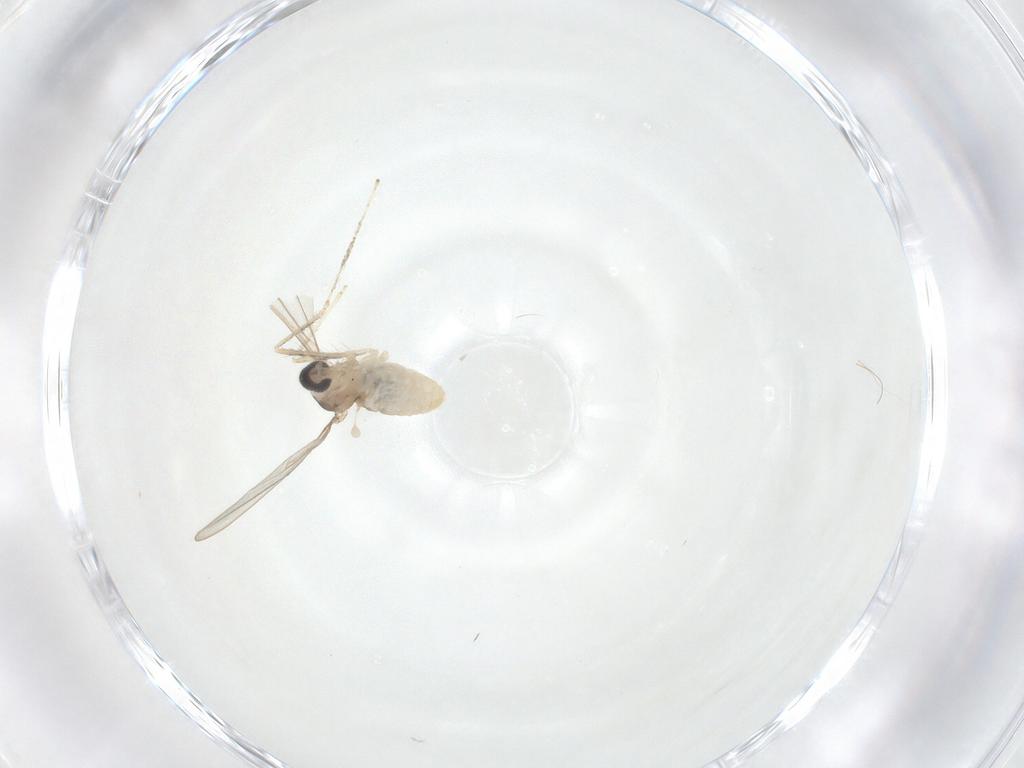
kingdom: Animalia
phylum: Arthropoda
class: Insecta
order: Diptera
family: Cecidomyiidae
